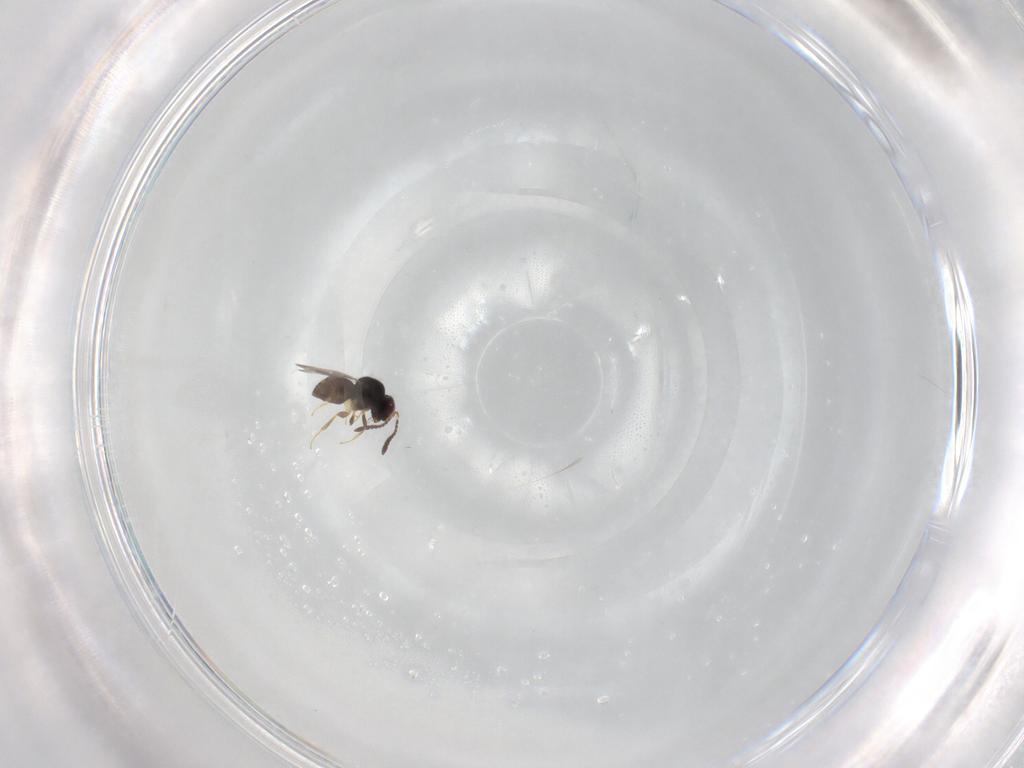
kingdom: Animalia
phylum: Arthropoda
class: Insecta
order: Hymenoptera
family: Ceraphronidae
